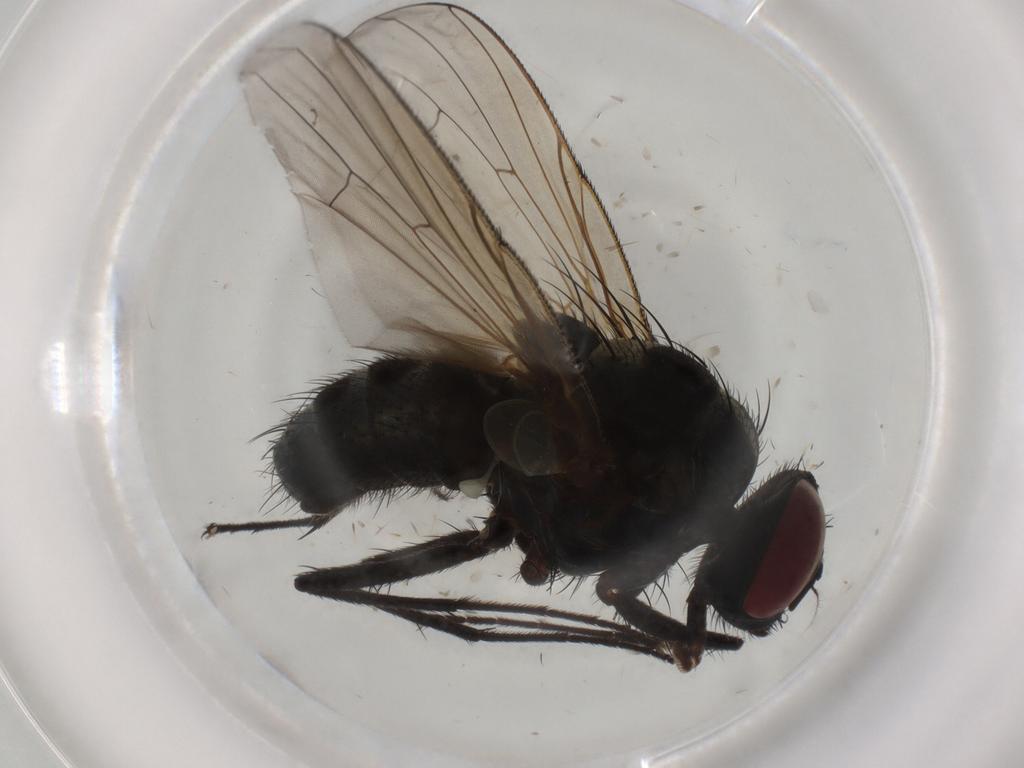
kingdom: Animalia
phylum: Arthropoda
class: Insecta
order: Diptera
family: Muscidae
